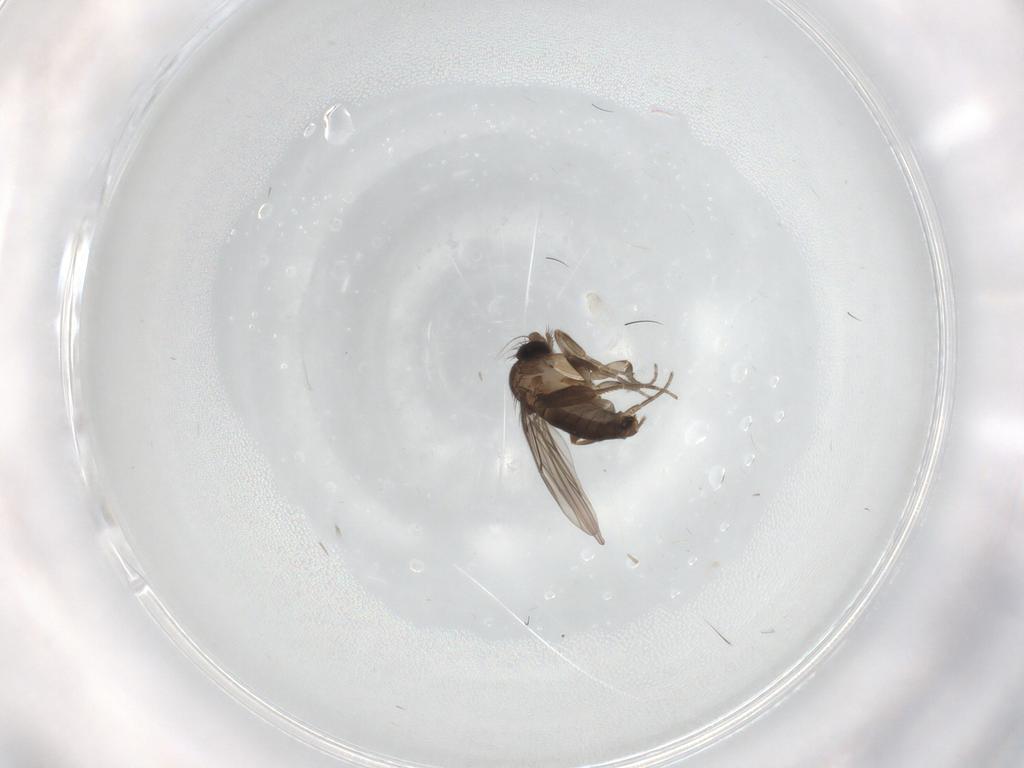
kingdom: Animalia
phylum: Arthropoda
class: Insecta
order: Diptera
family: Phoridae
